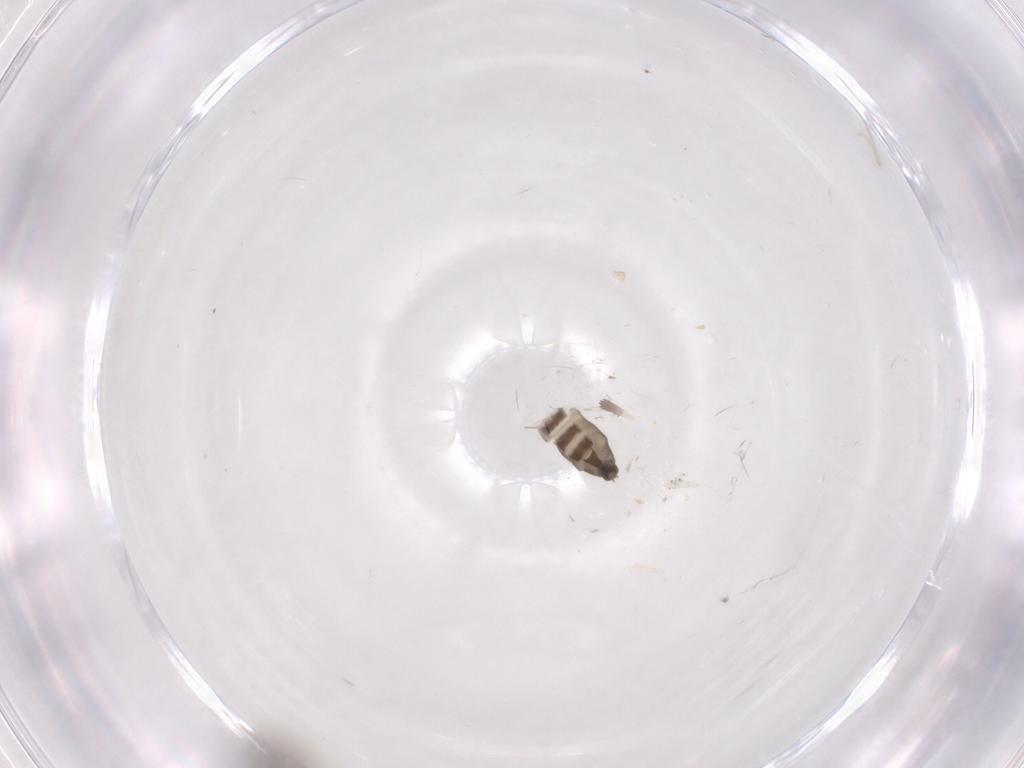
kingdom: Animalia
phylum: Arthropoda
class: Insecta
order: Diptera
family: Phoridae
